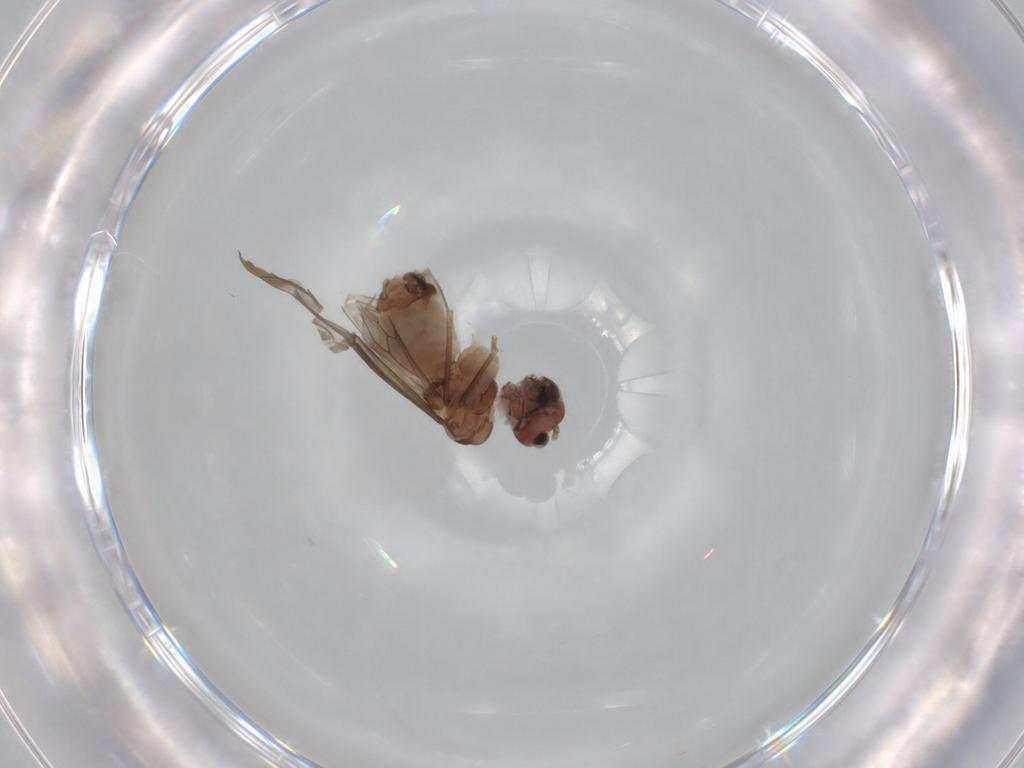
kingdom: Animalia
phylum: Arthropoda
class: Insecta
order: Psocodea
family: Peripsocidae
